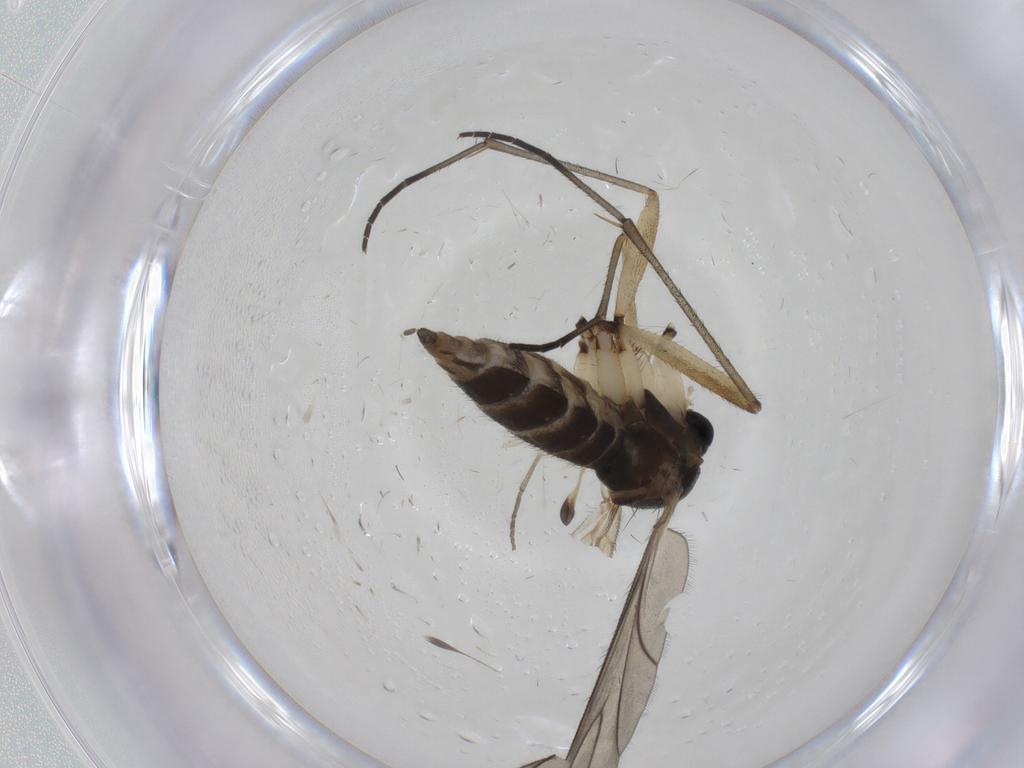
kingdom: Animalia
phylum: Arthropoda
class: Insecta
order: Diptera
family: Sciaridae
